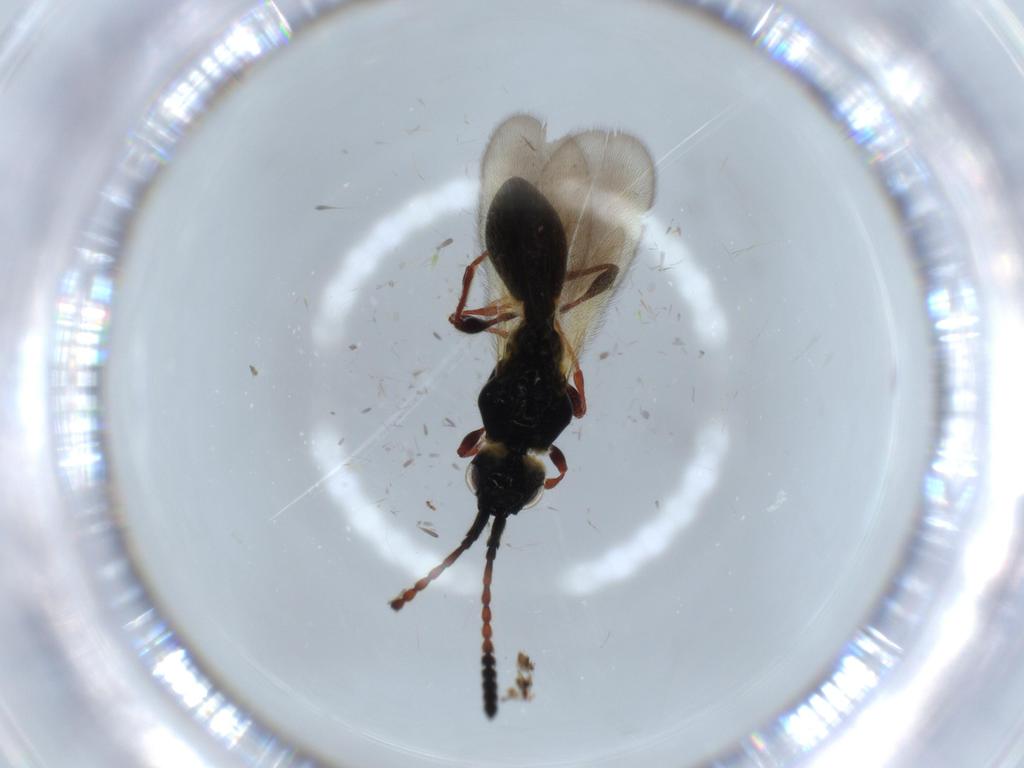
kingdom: Animalia
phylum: Arthropoda
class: Insecta
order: Hymenoptera
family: Diapriidae
